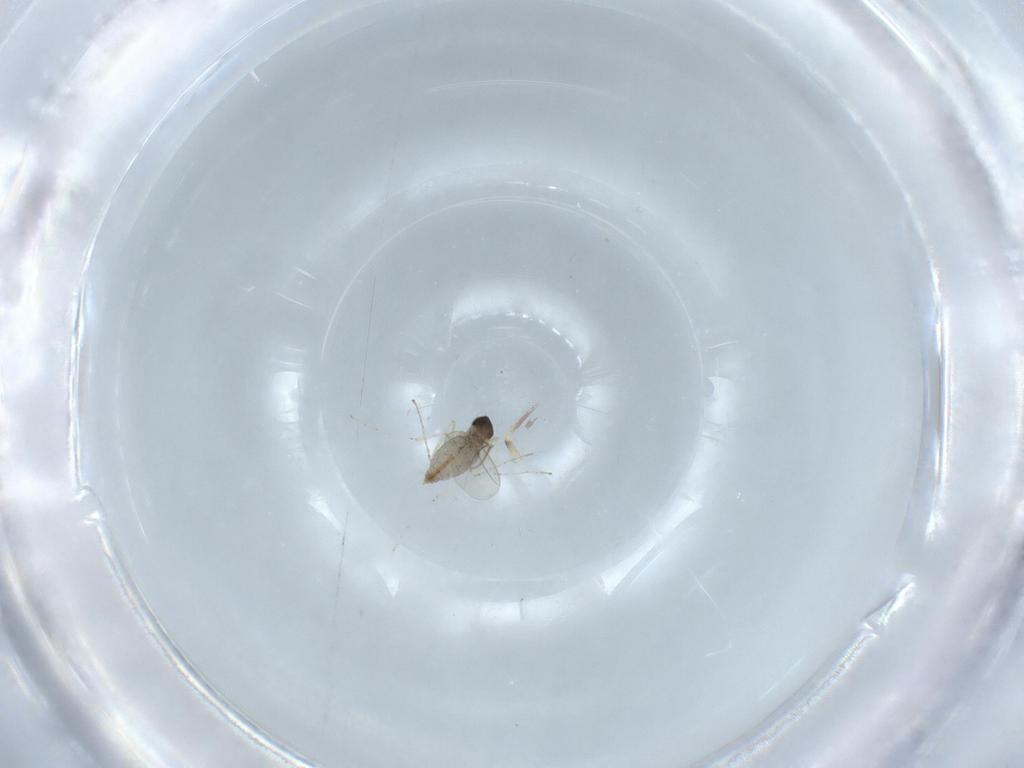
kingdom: Animalia
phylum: Arthropoda
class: Insecta
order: Diptera
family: Cecidomyiidae
